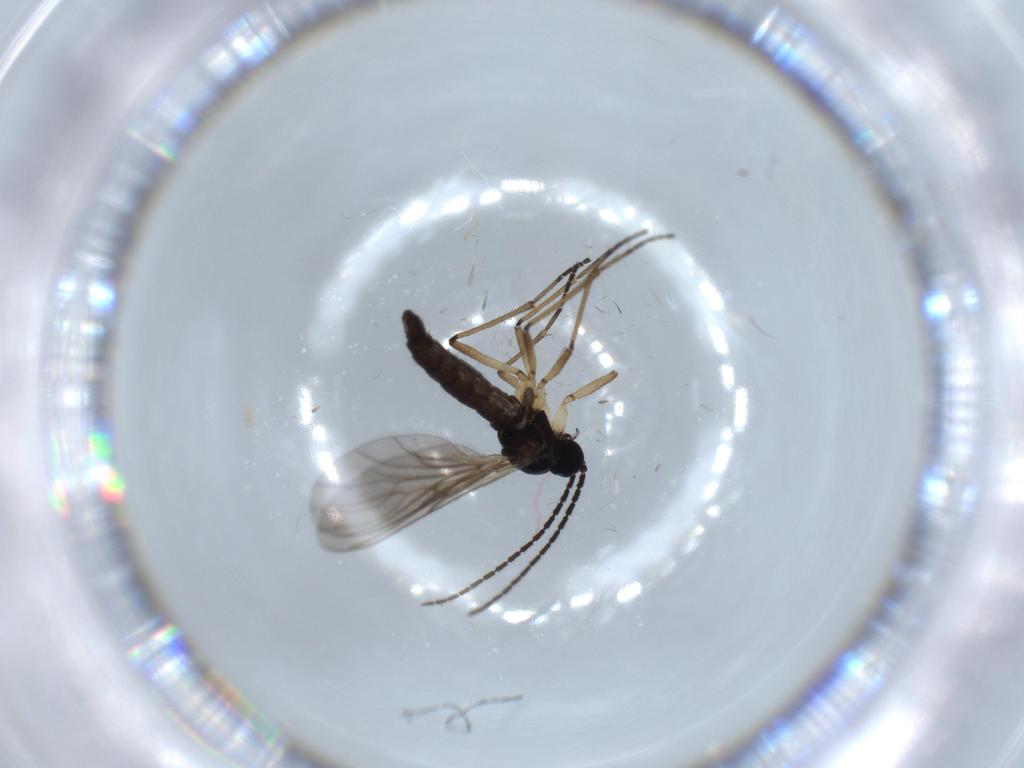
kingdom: Animalia
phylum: Arthropoda
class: Insecta
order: Diptera
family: Sciaridae
